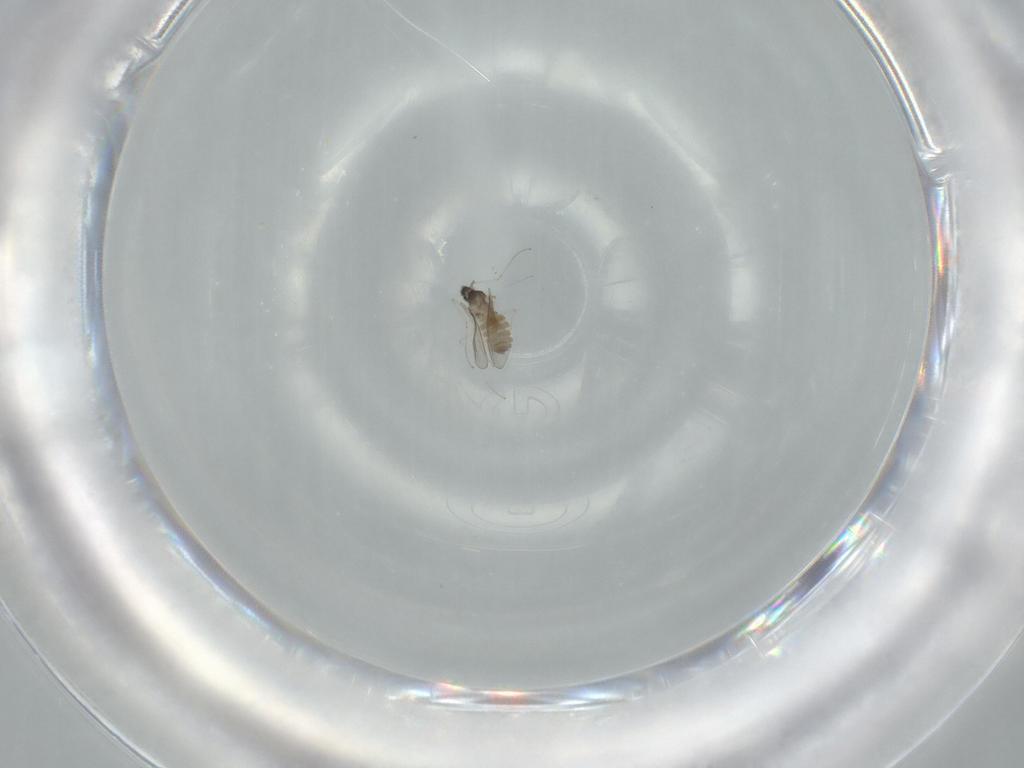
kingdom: Animalia
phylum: Arthropoda
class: Insecta
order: Diptera
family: Cecidomyiidae
